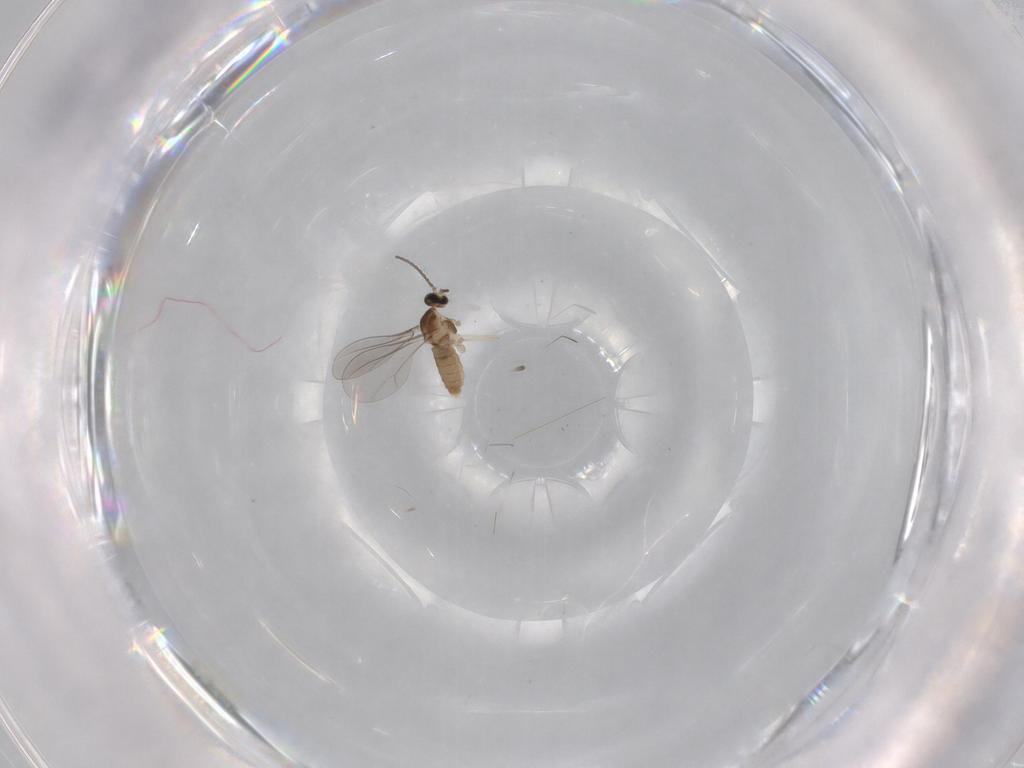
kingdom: Animalia
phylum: Arthropoda
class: Insecta
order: Diptera
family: Cecidomyiidae
